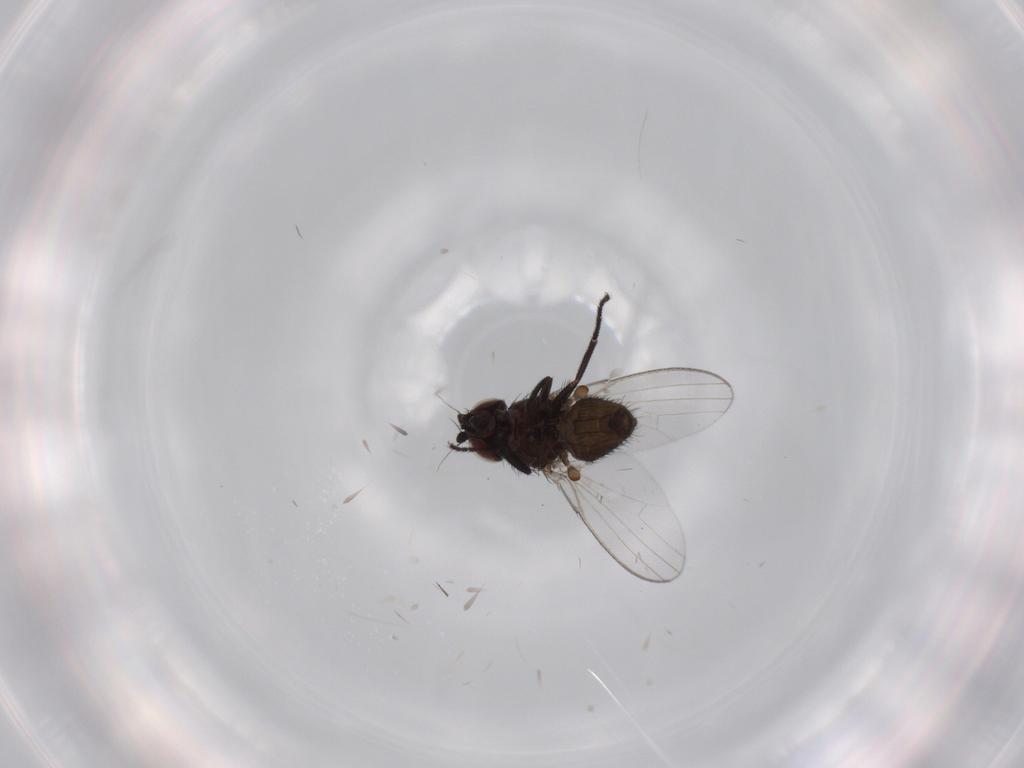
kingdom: Animalia
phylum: Arthropoda
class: Insecta
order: Diptera
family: Milichiidae
